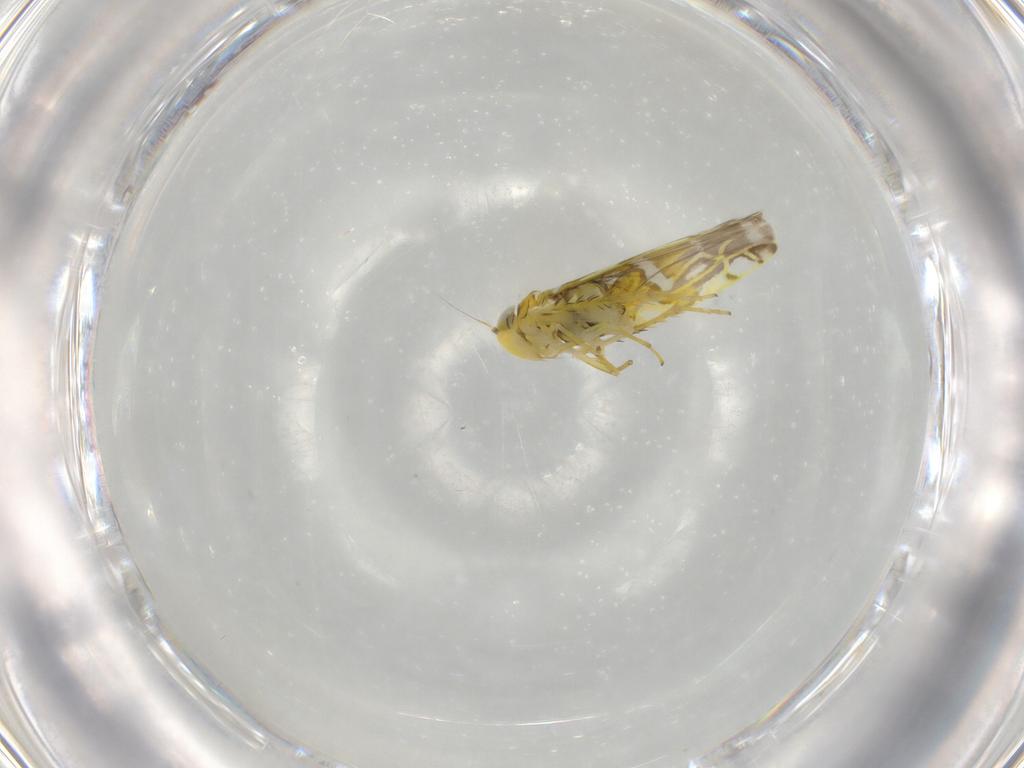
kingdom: Animalia
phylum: Arthropoda
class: Insecta
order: Hemiptera
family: Cicadellidae
